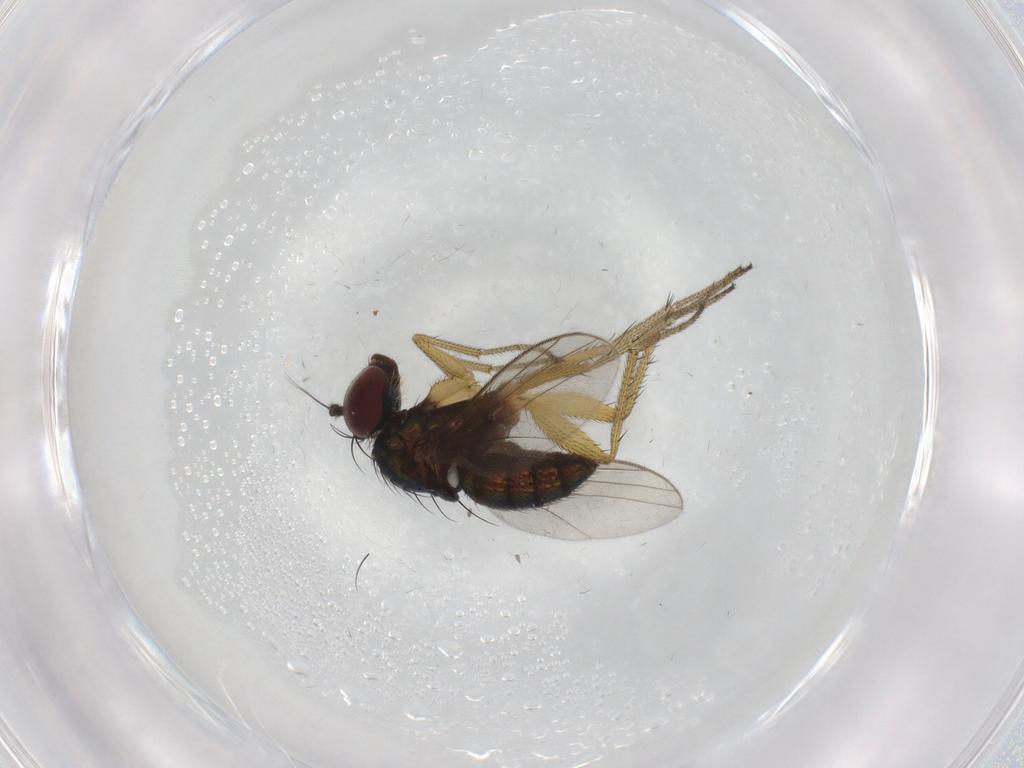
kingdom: Animalia
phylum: Arthropoda
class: Insecta
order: Diptera
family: Dolichopodidae
